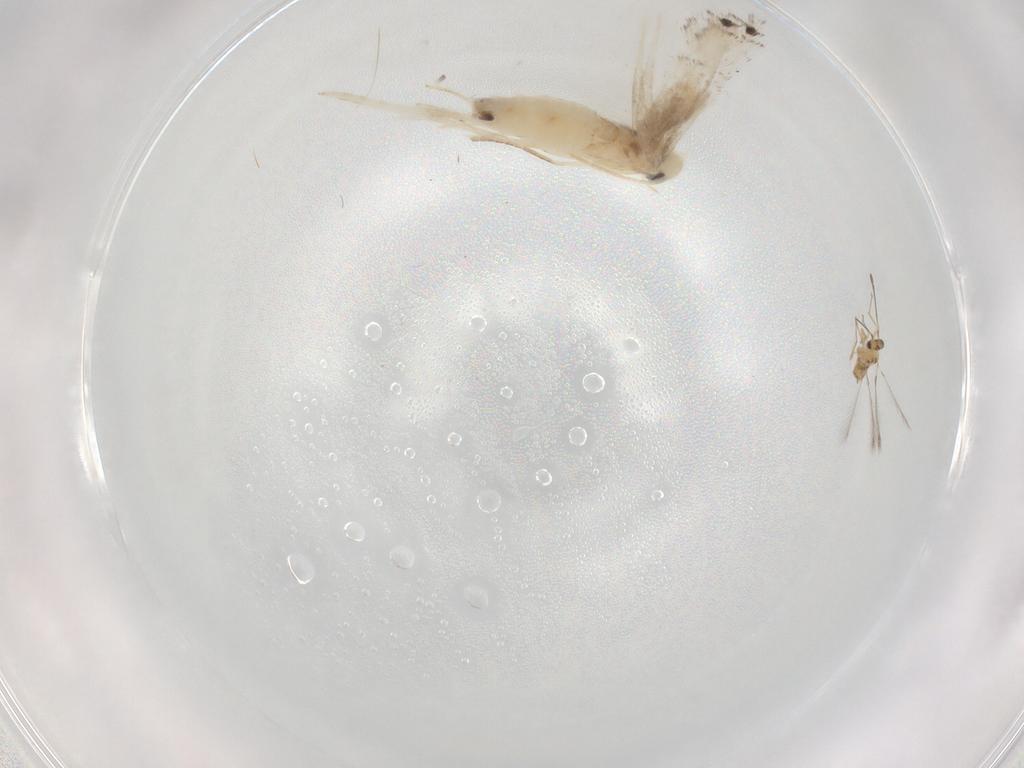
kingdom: Animalia
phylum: Arthropoda
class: Insecta
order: Lepidoptera
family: Gracillariidae
